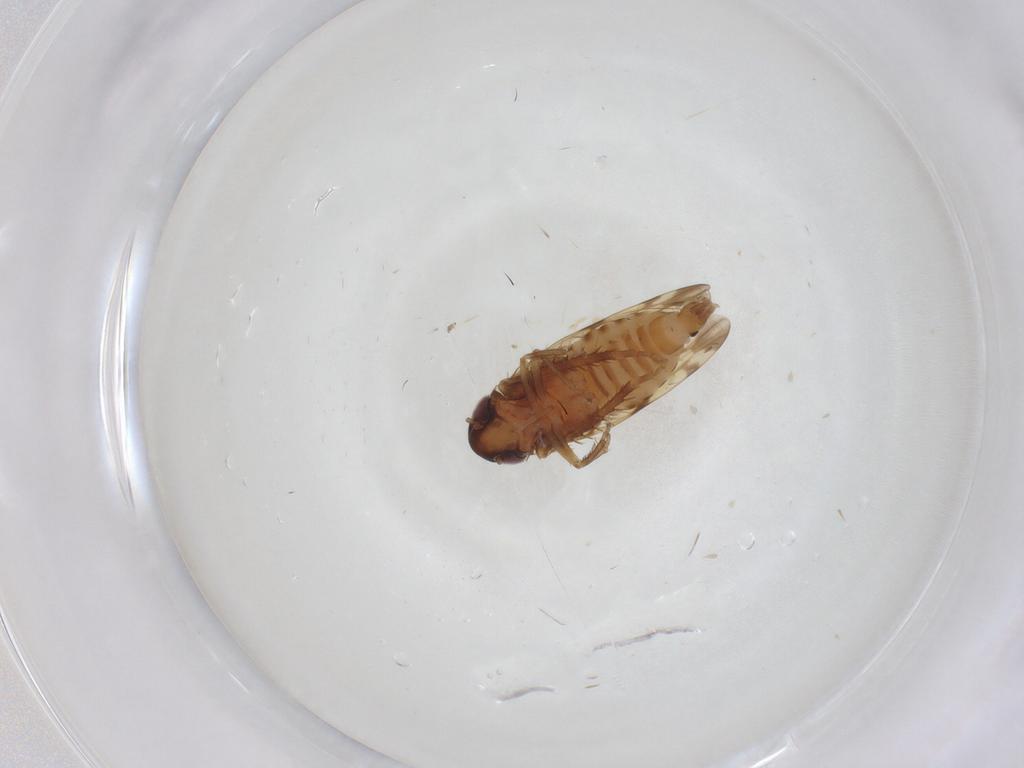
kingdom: Animalia
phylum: Arthropoda
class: Insecta
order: Hemiptera
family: Cicadellidae
